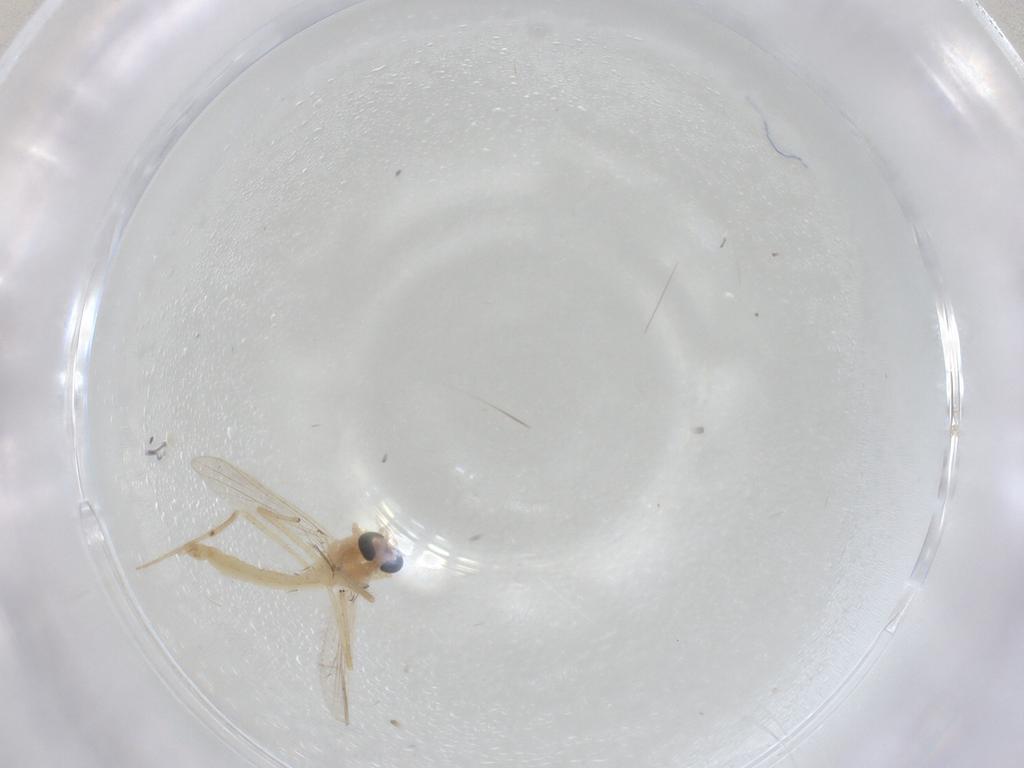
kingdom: Animalia
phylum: Arthropoda
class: Insecta
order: Diptera
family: Chironomidae
